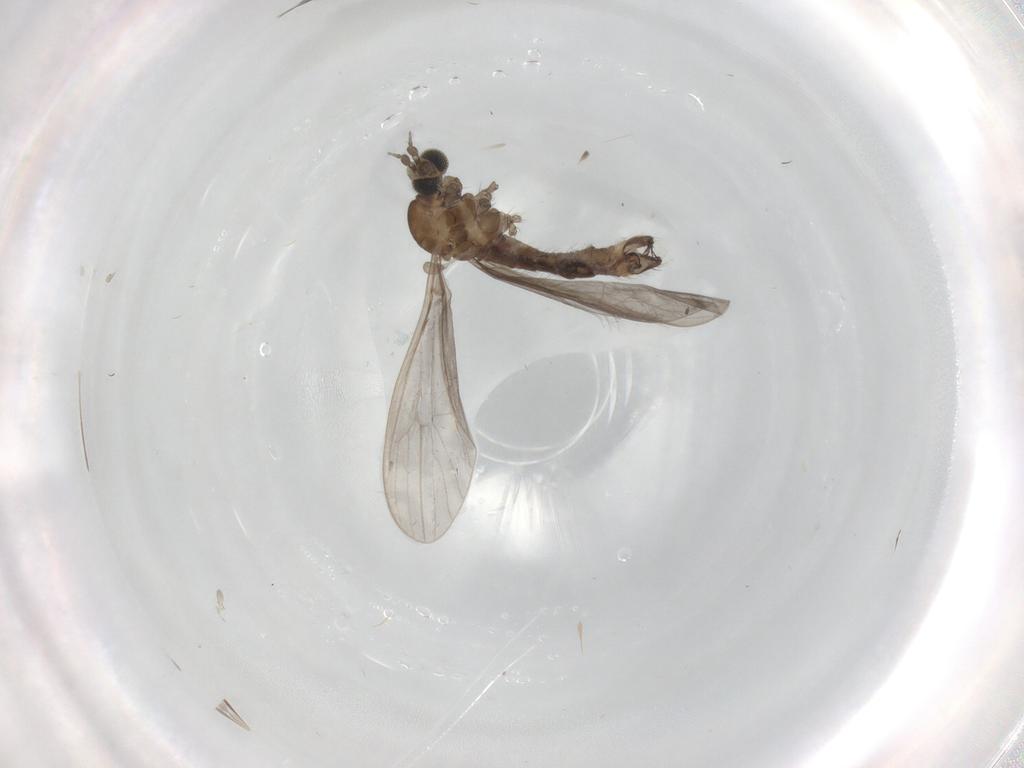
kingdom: Animalia
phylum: Arthropoda
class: Insecta
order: Diptera
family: Limoniidae
